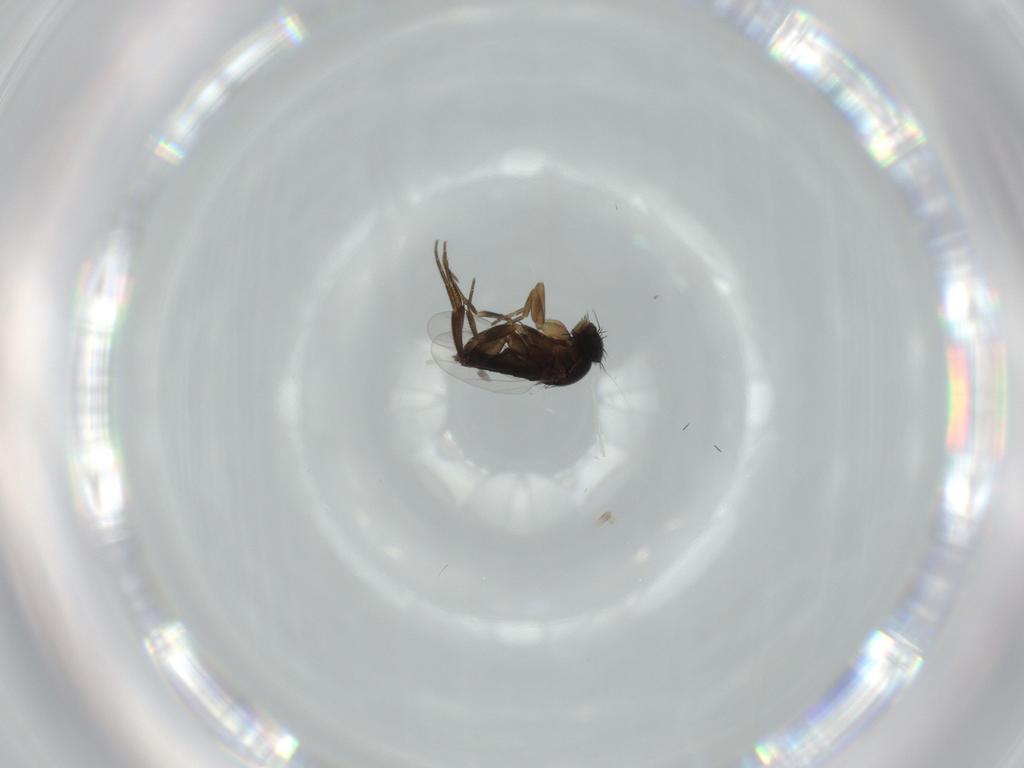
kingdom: Animalia
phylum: Arthropoda
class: Insecta
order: Diptera
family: Phoridae
